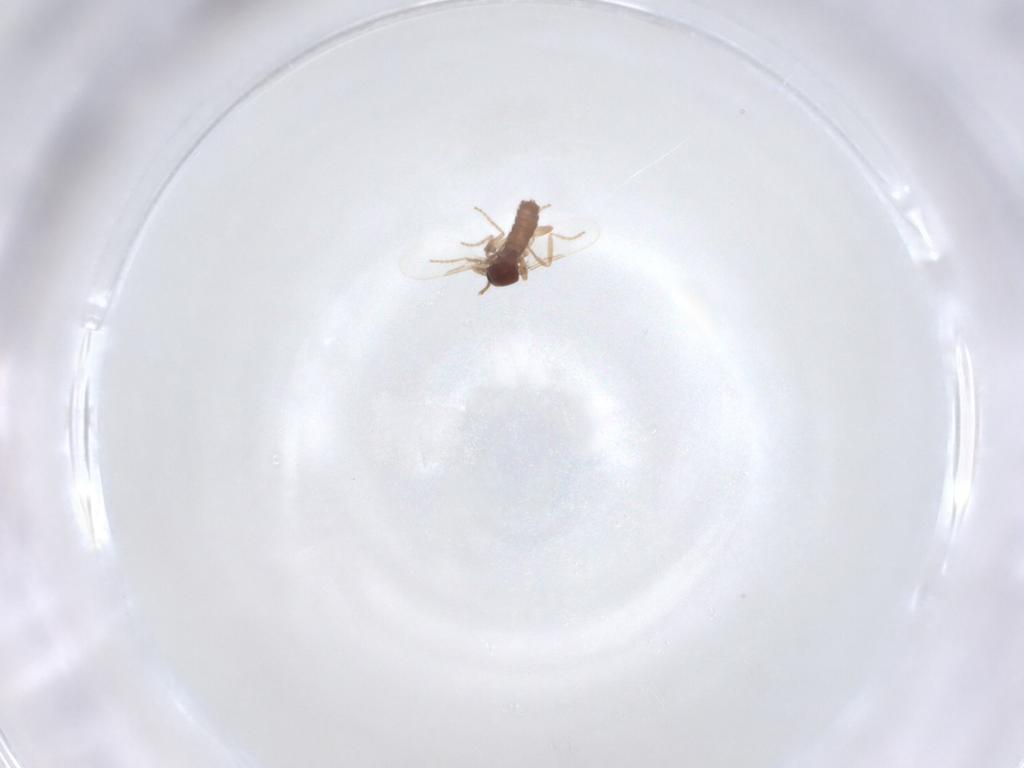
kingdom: Animalia
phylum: Arthropoda
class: Insecta
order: Diptera
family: Ceratopogonidae
